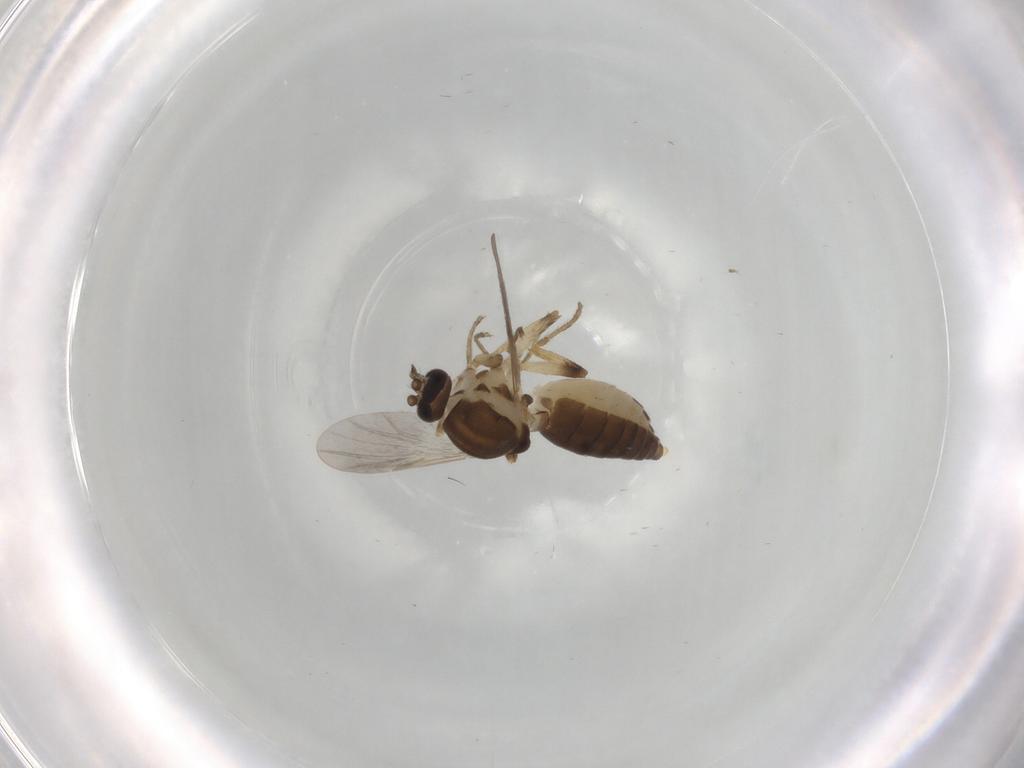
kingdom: Animalia
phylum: Arthropoda
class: Insecta
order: Diptera
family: Ceratopogonidae
